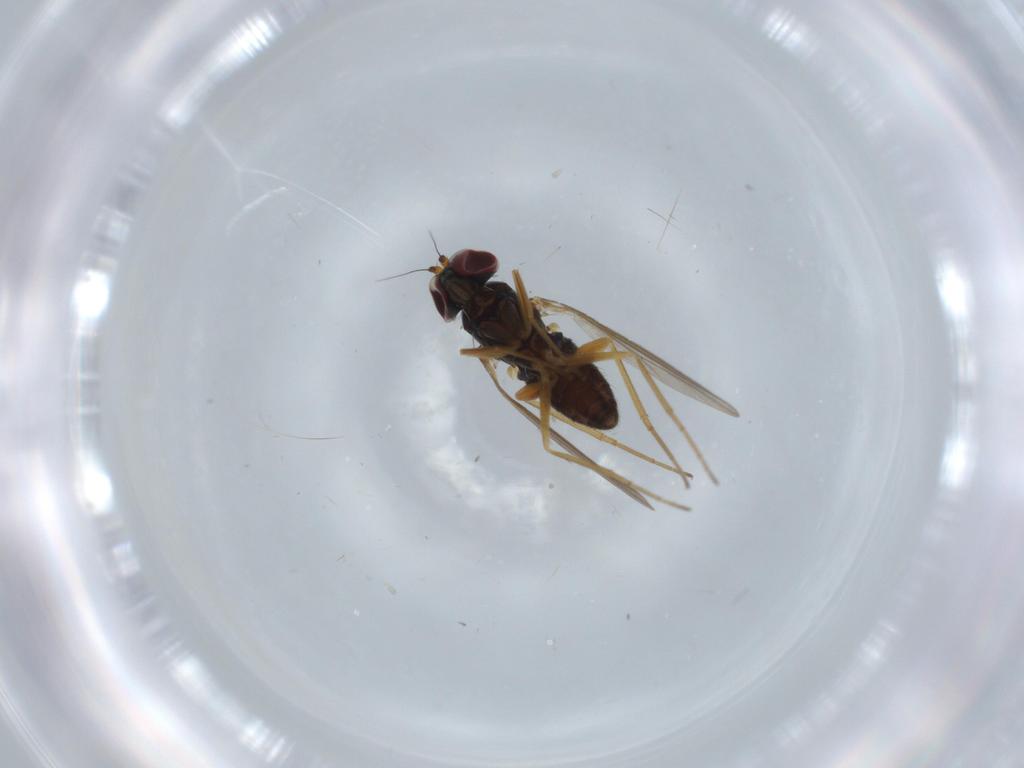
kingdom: Animalia
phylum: Arthropoda
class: Insecta
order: Diptera
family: Dolichopodidae
